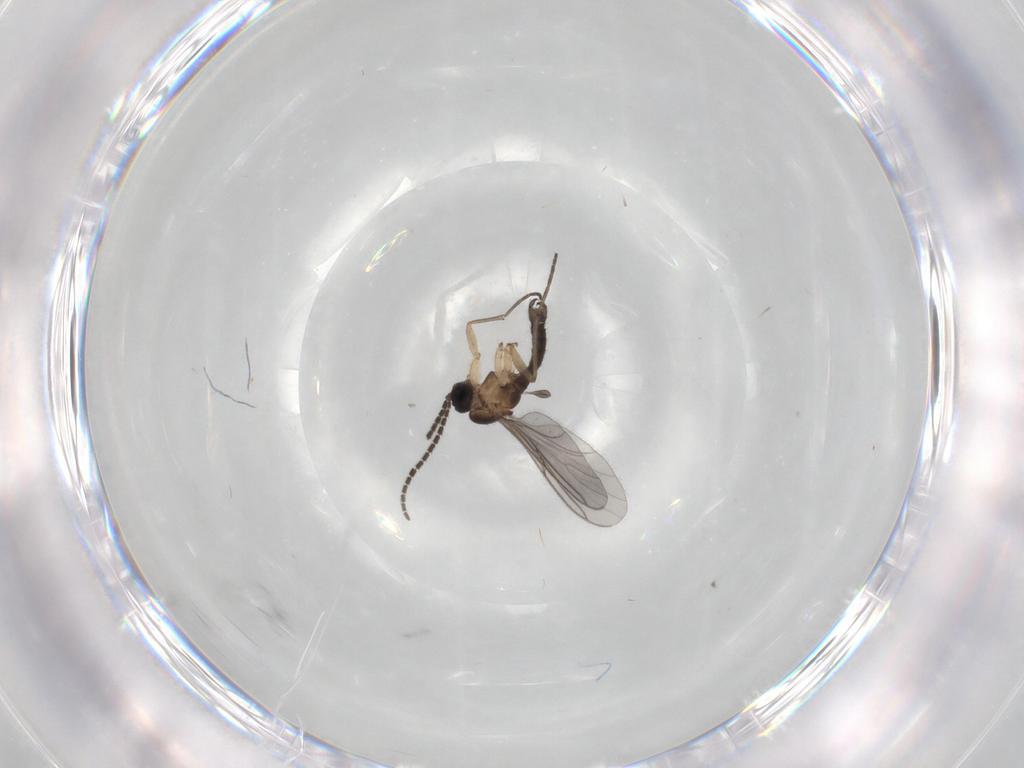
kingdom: Animalia
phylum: Arthropoda
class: Insecta
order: Diptera
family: Sciaridae
